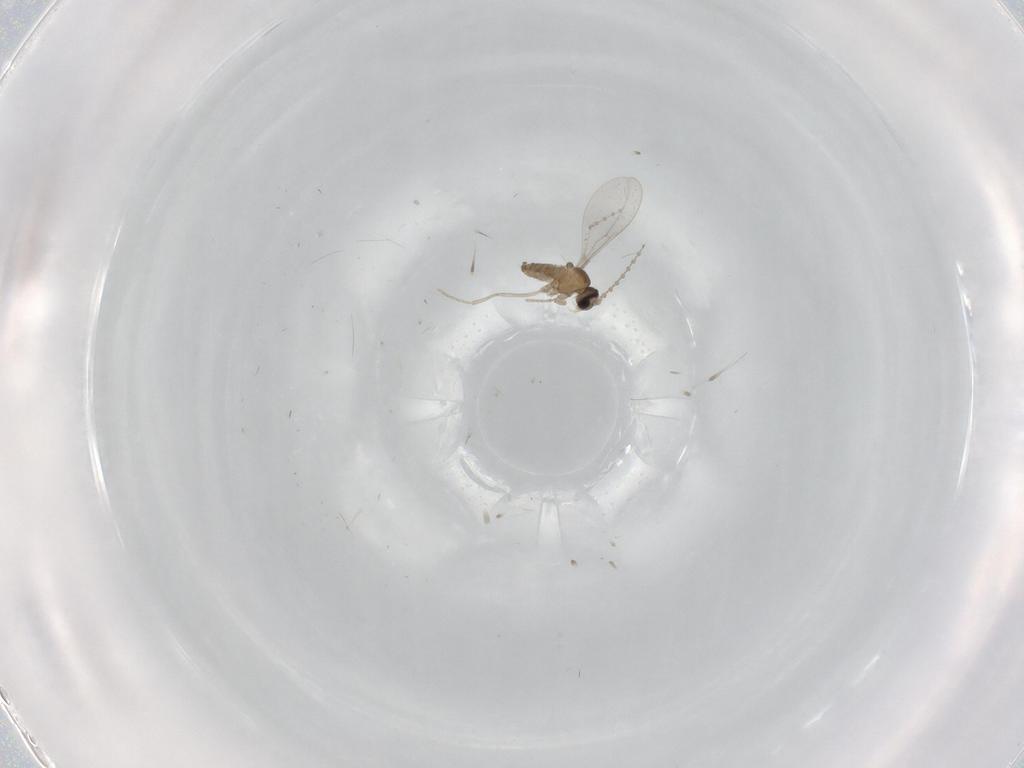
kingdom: Animalia
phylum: Arthropoda
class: Insecta
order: Diptera
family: Cecidomyiidae
